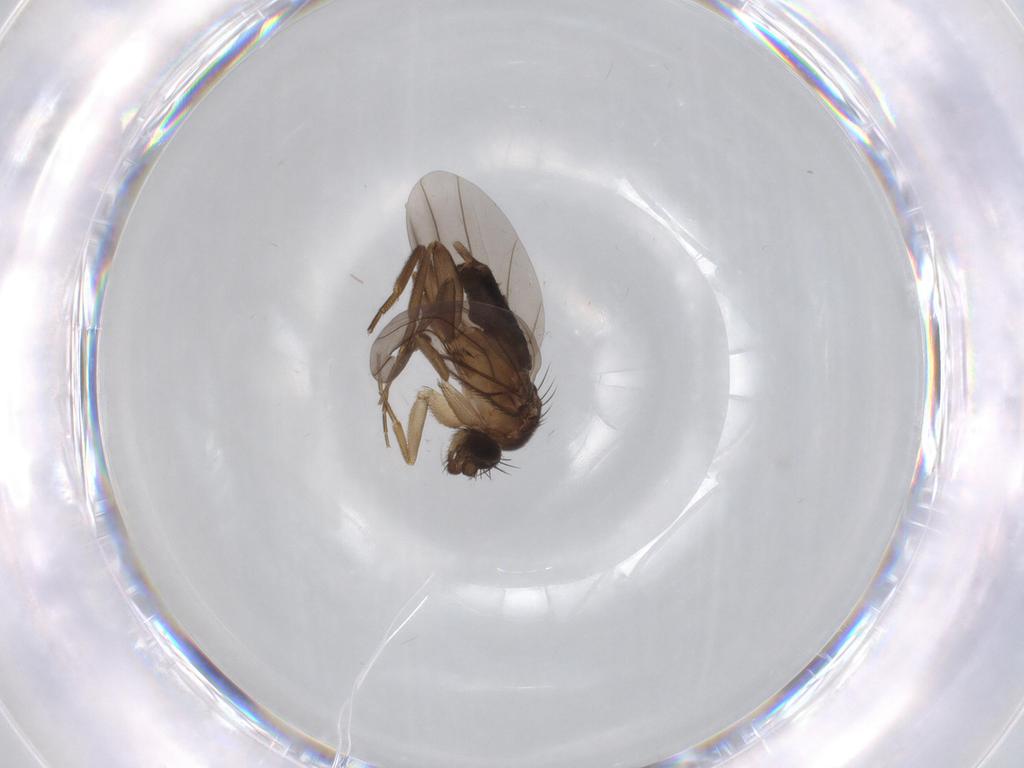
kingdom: Animalia
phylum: Arthropoda
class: Insecta
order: Diptera
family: Phoridae
